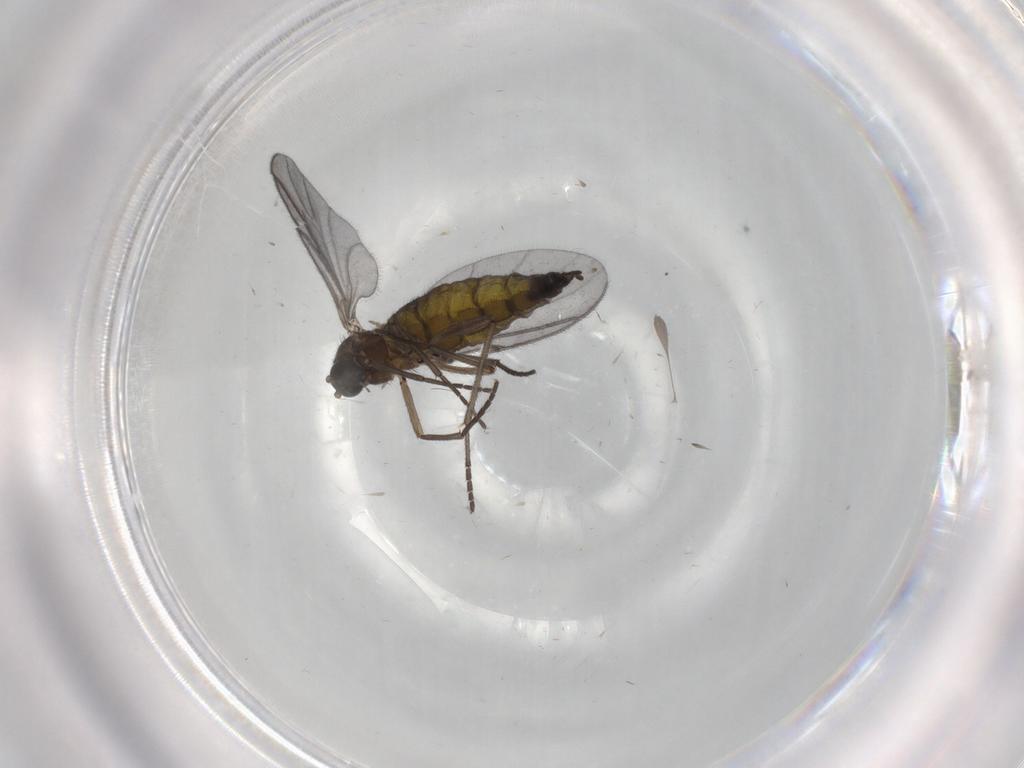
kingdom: Animalia
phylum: Arthropoda
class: Insecta
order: Diptera
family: Sciaridae
